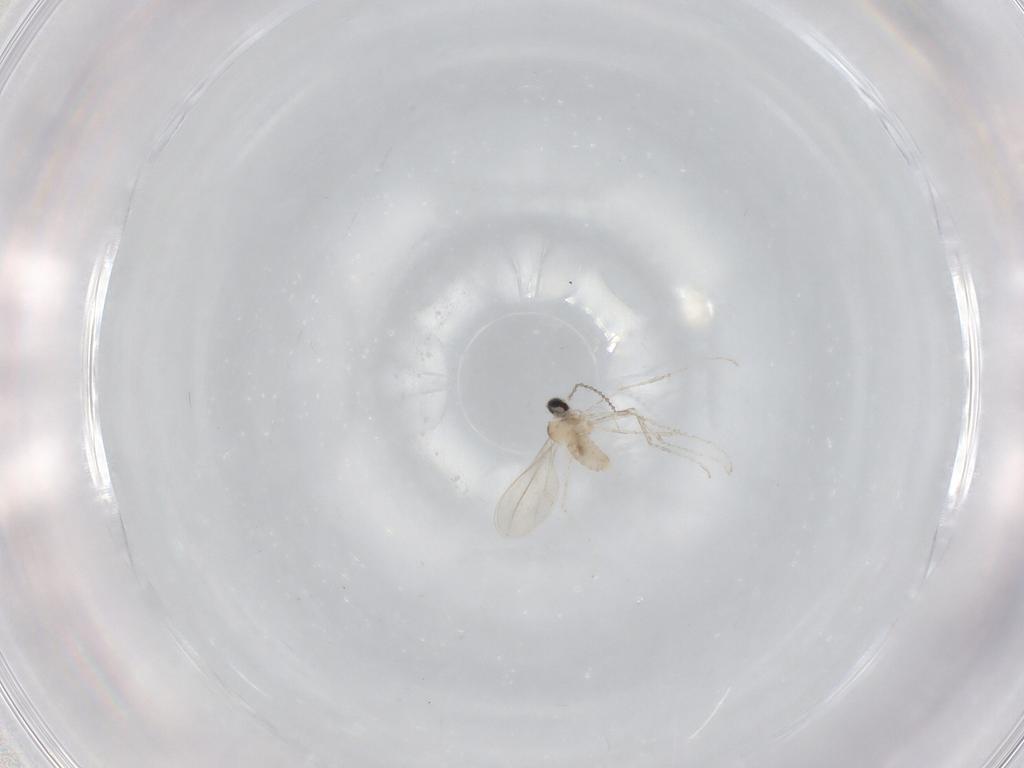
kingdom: Animalia
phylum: Arthropoda
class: Insecta
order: Diptera
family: Cecidomyiidae
